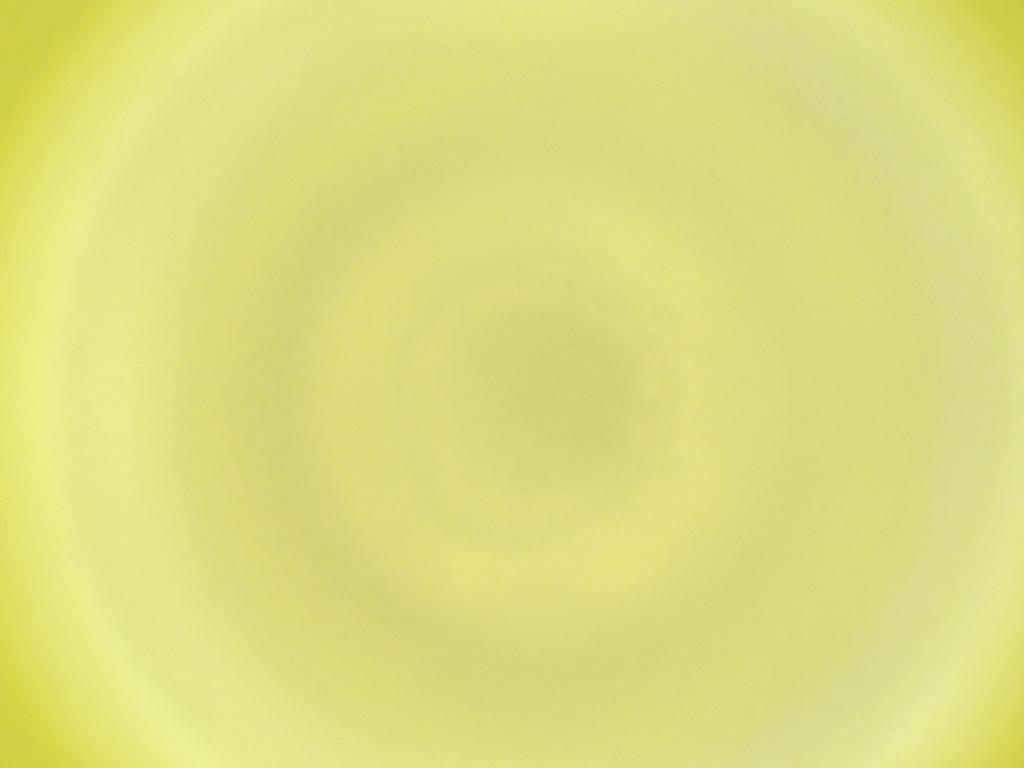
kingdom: Animalia
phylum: Arthropoda
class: Insecta
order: Diptera
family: Cecidomyiidae
